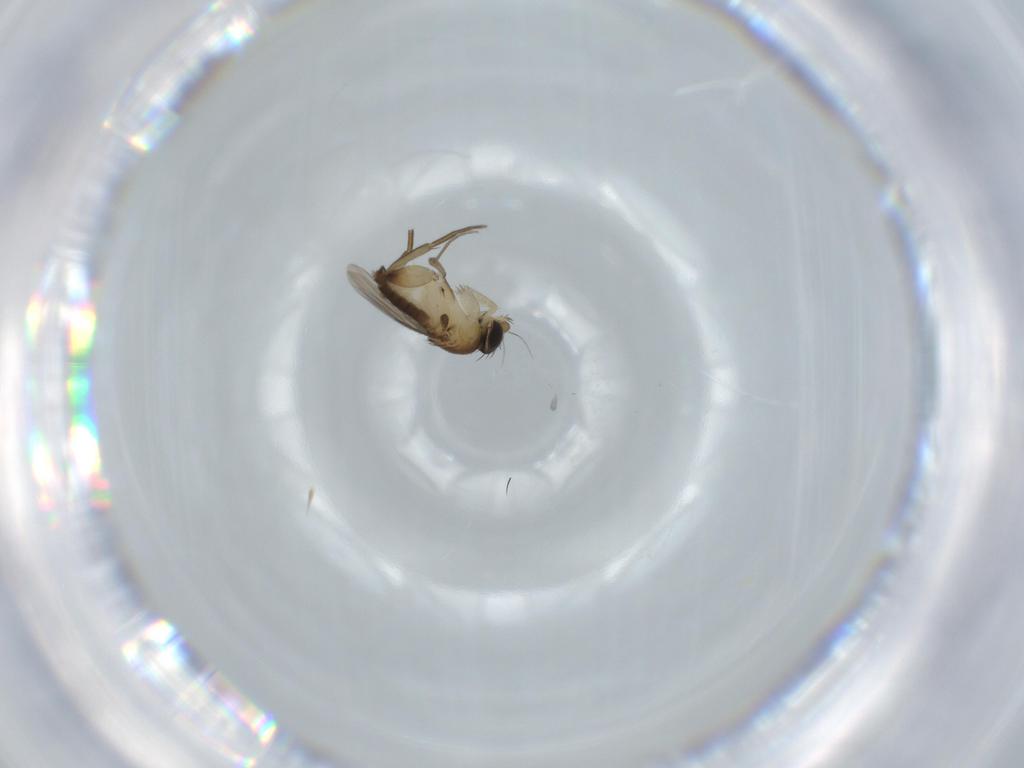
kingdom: Animalia
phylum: Arthropoda
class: Insecta
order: Diptera
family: Phoridae
